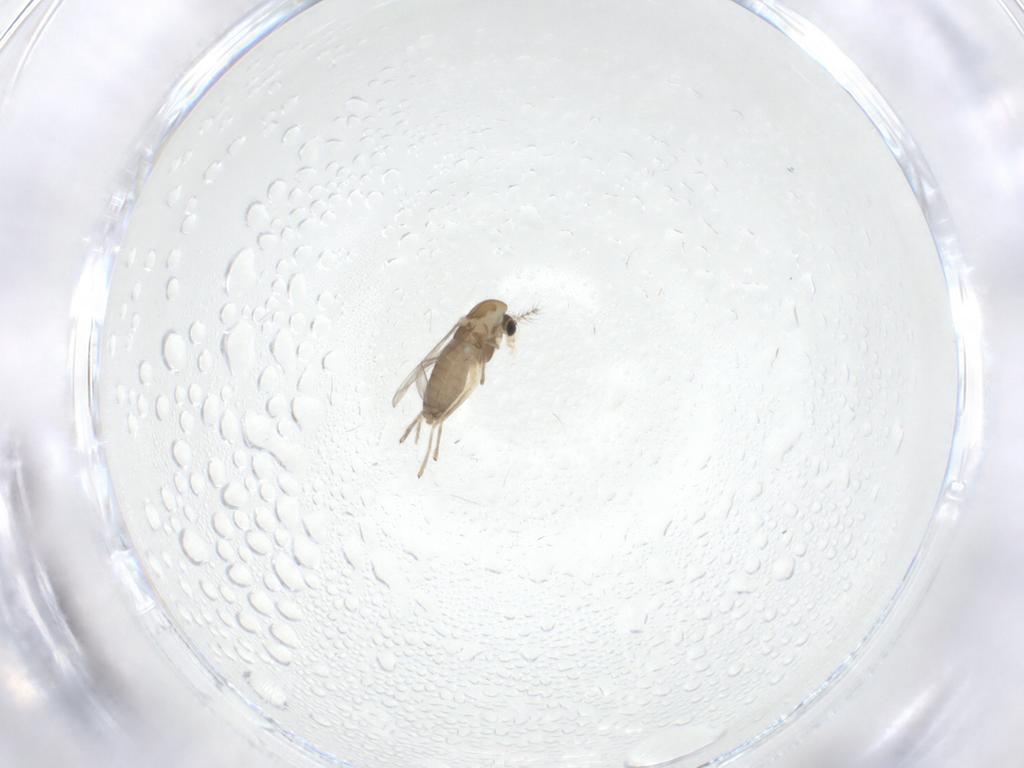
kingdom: Animalia
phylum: Arthropoda
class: Insecta
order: Diptera
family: Chironomidae
